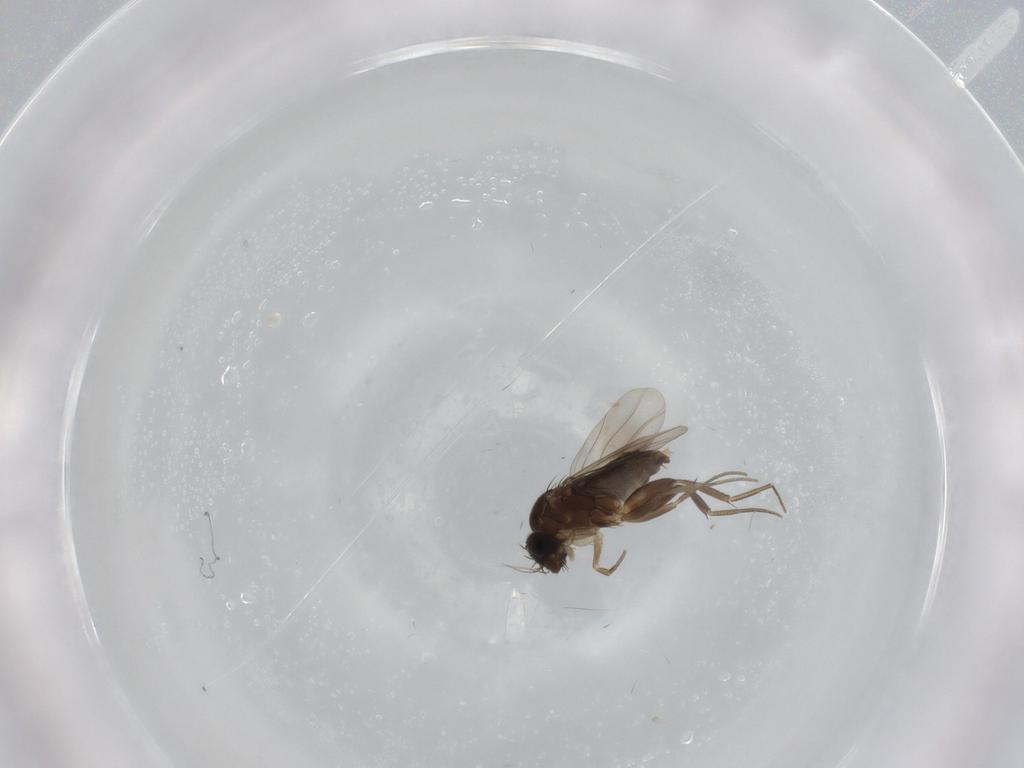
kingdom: Animalia
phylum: Arthropoda
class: Insecta
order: Diptera
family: Phoridae
